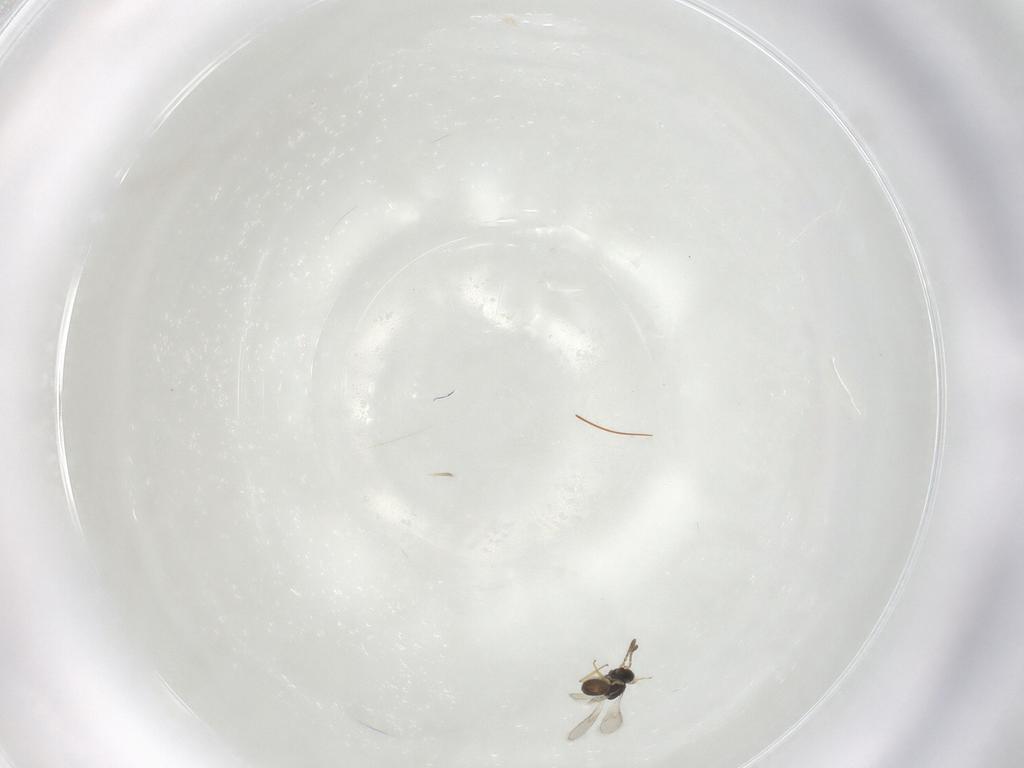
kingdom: Animalia
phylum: Arthropoda
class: Insecta
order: Hymenoptera
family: Scelionidae
